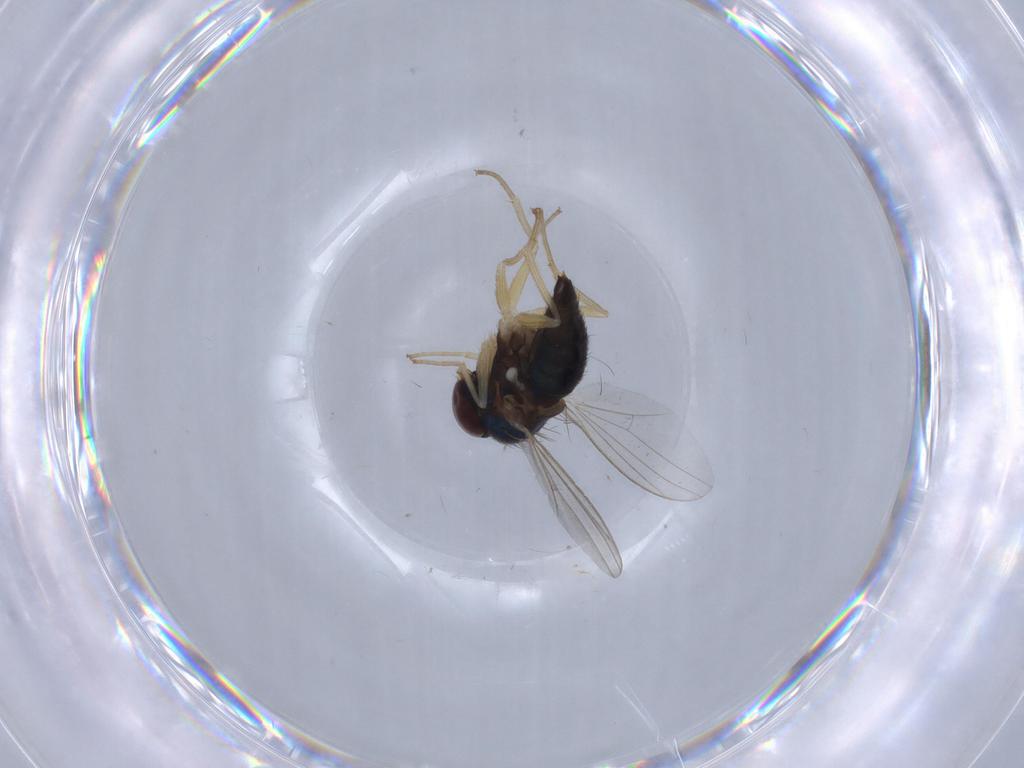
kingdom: Animalia
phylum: Arthropoda
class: Insecta
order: Diptera
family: Dolichopodidae
